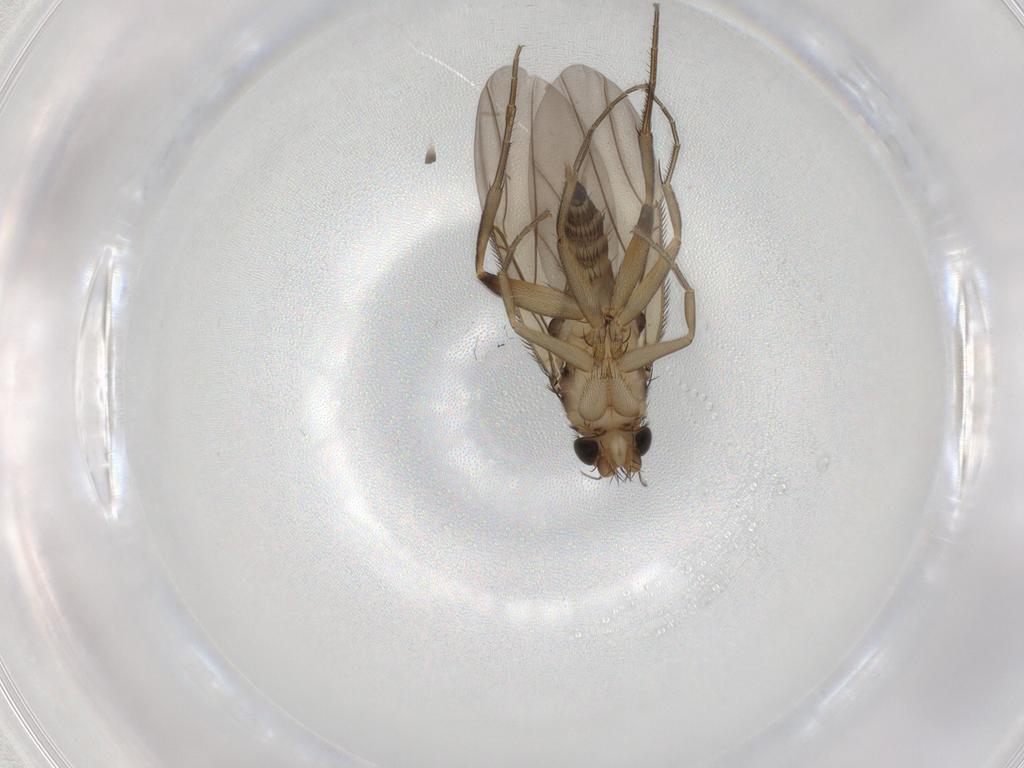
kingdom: Animalia
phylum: Arthropoda
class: Insecta
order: Diptera
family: Phoridae
